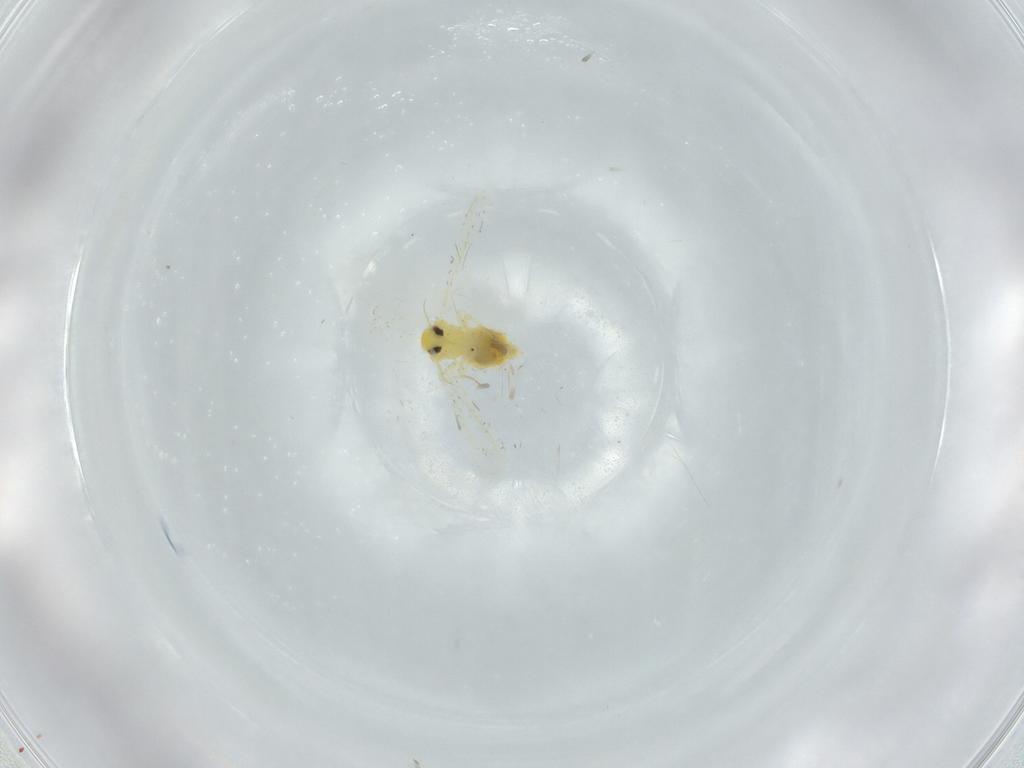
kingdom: Animalia
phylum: Arthropoda
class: Insecta
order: Hemiptera
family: Aleyrodidae
